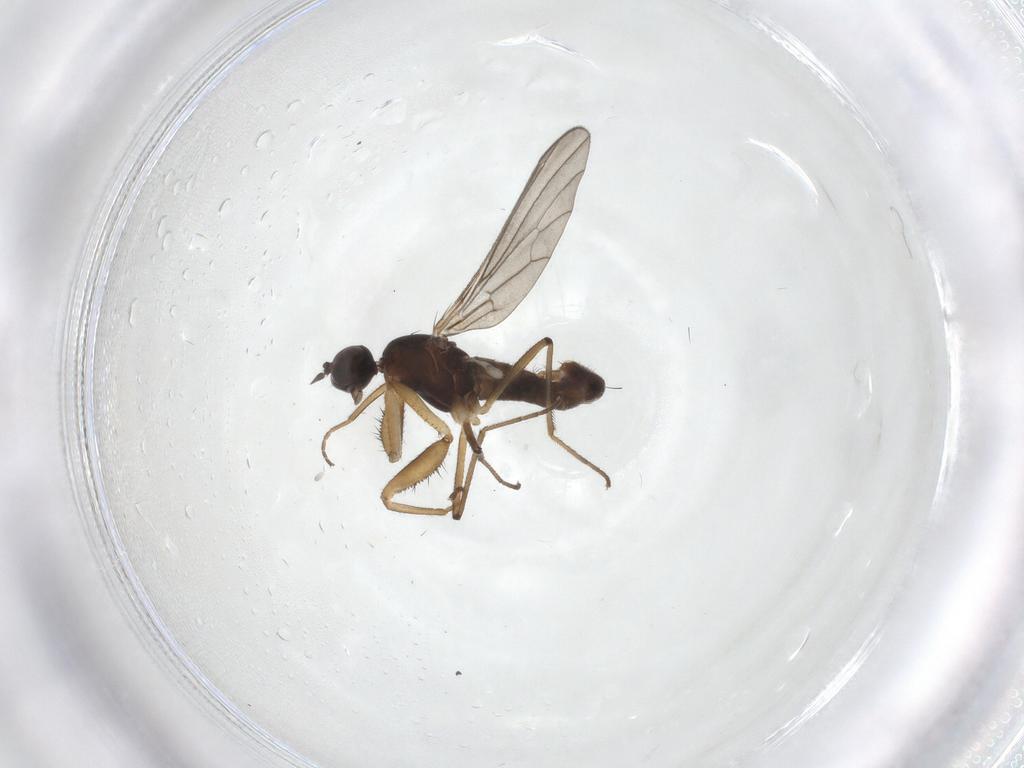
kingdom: Animalia
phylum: Arthropoda
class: Insecta
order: Diptera
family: Empididae
